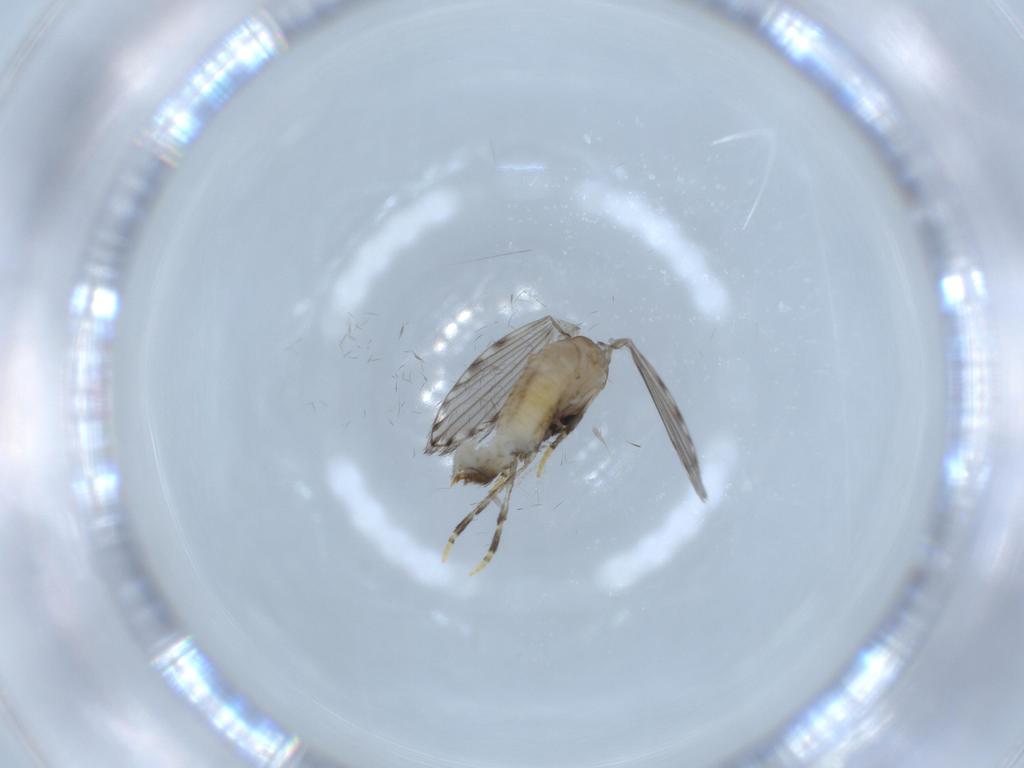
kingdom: Animalia
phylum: Arthropoda
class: Insecta
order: Diptera
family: Psychodidae
